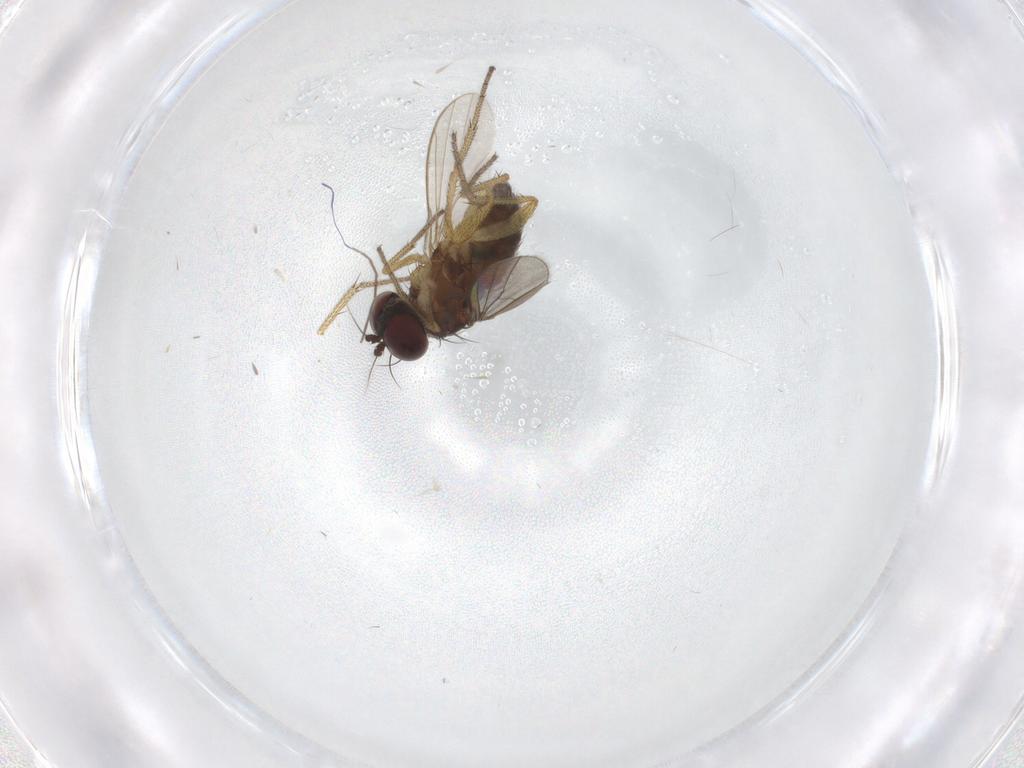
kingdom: Animalia
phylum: Arthropoda
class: Insecta
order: Diptera
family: Chironomidae
